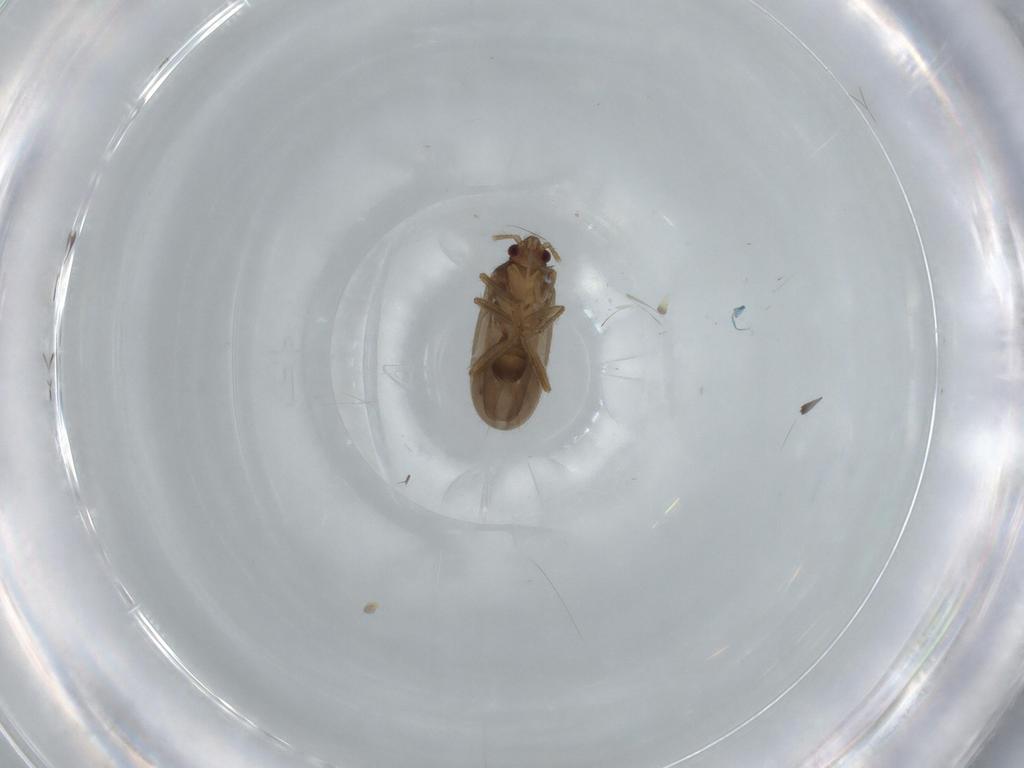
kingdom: Animalia
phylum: Arthropoda
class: Insecta
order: Hemiptera
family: Ceratocombidae
